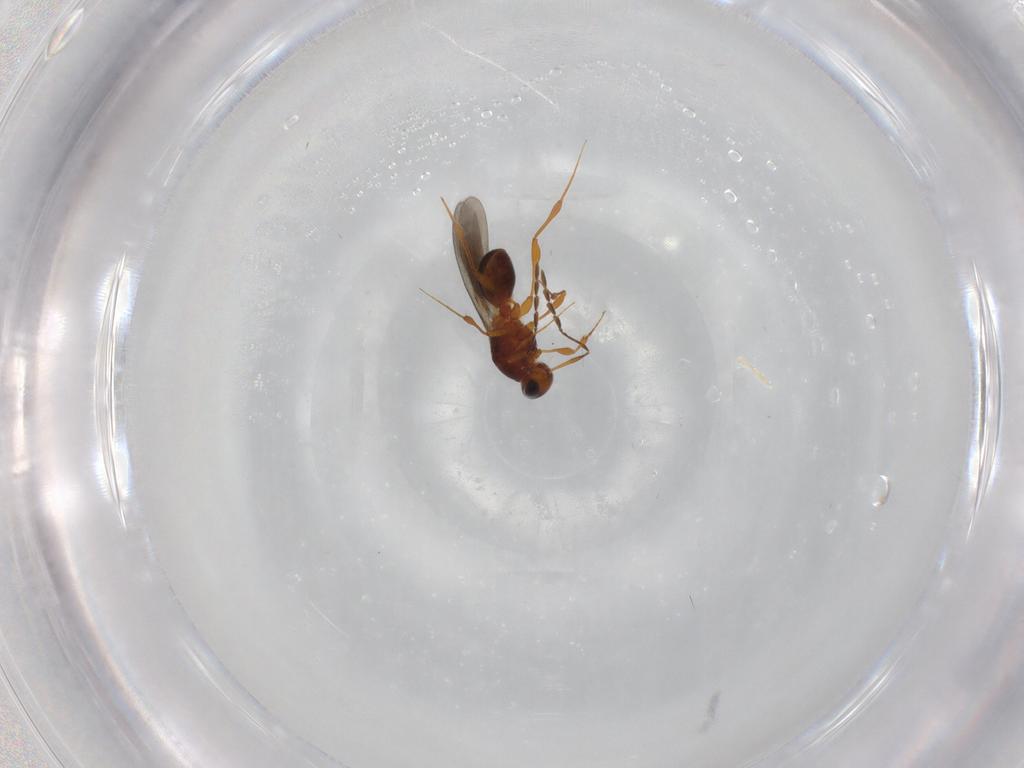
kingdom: Animalia
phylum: Arthropoda
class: Insecta
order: Hymenoptera
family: Platygastridae
